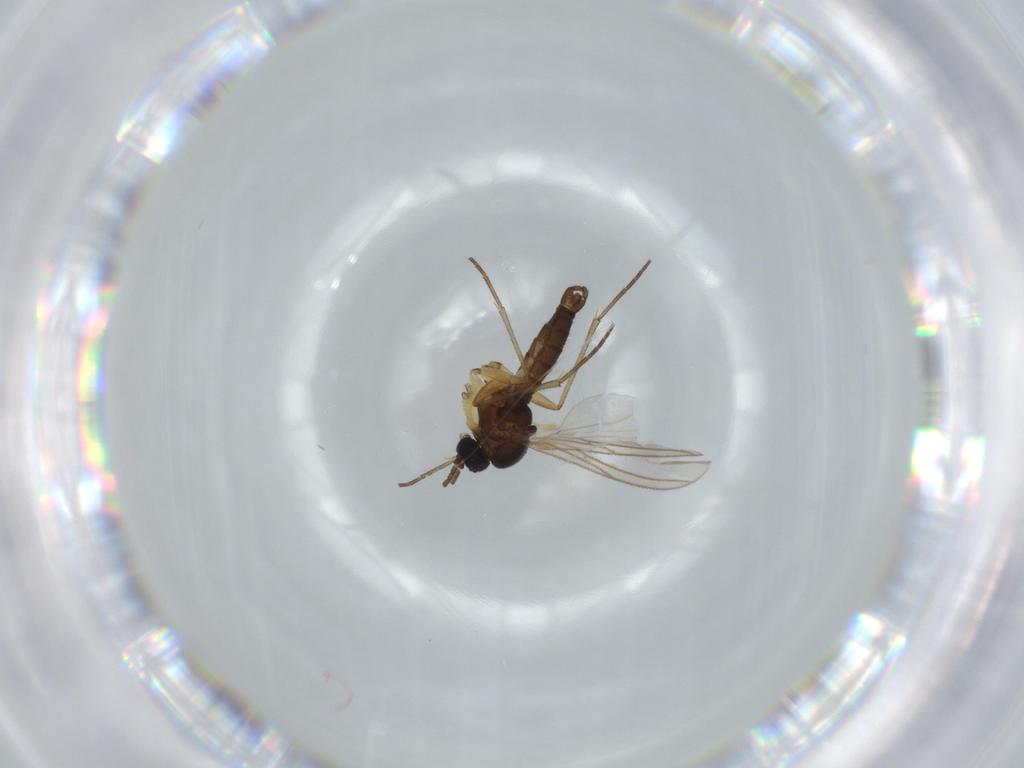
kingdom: Animalia
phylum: Arthropoda
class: Insecta
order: Diptera
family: Sciaridae
